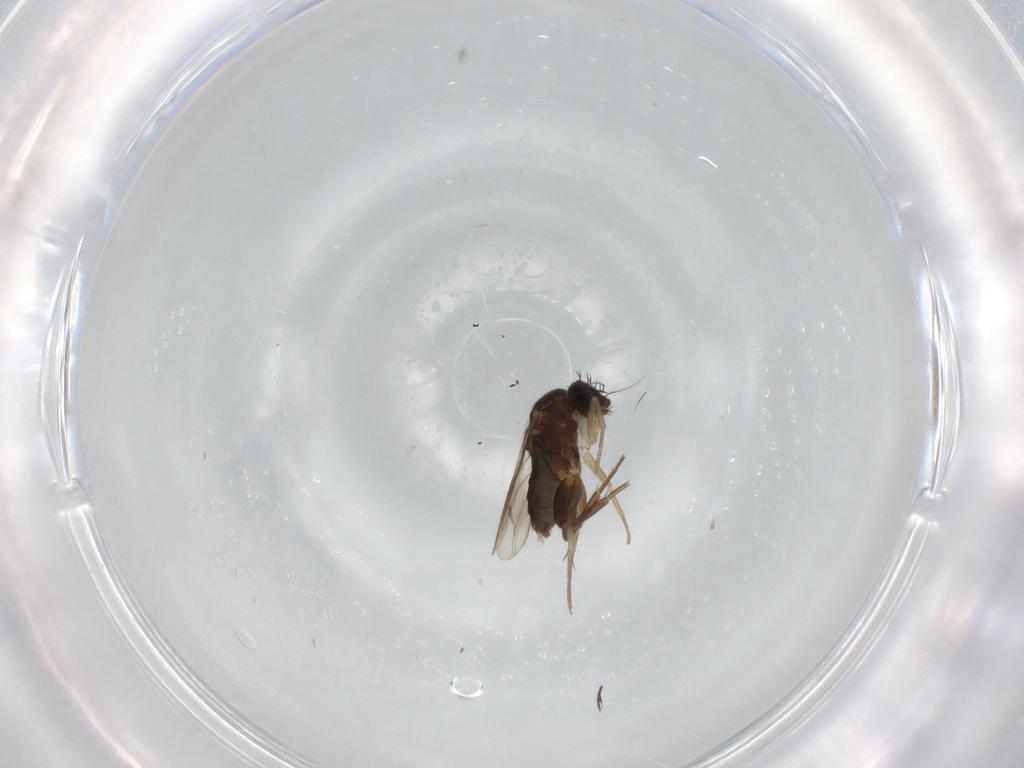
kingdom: Animalia
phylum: Arthropoda
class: Insecta
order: Diptera
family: Phoridae
